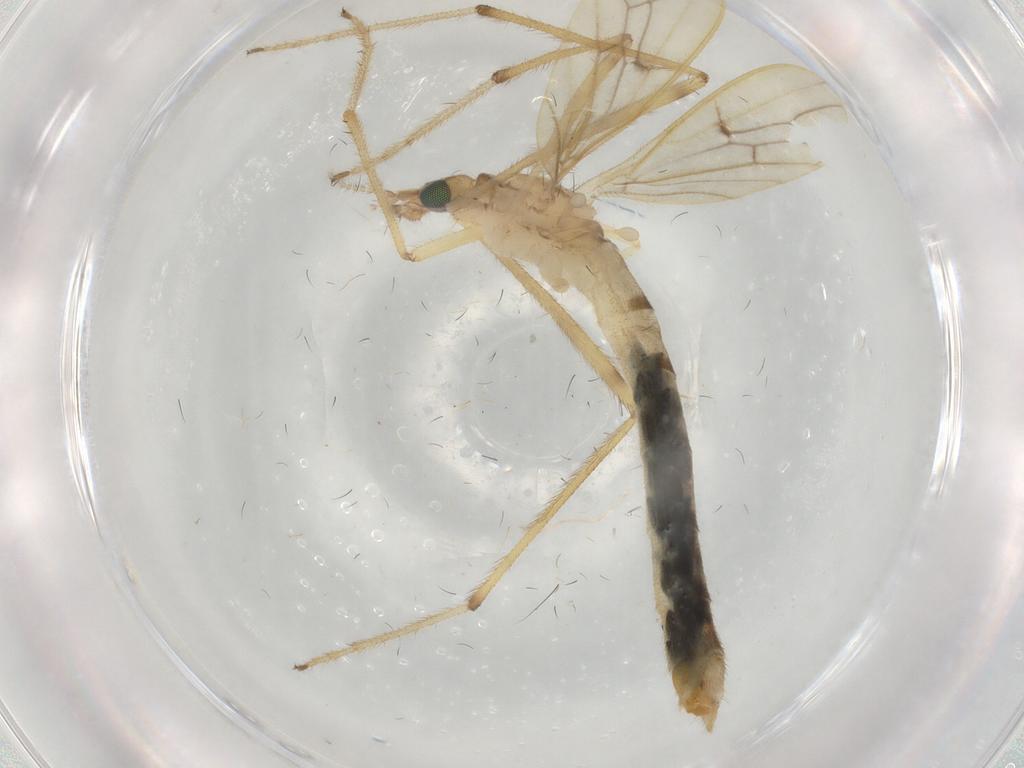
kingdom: Animalia
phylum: Arthropoda
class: Insecta
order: Diptera
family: Limoniidae
